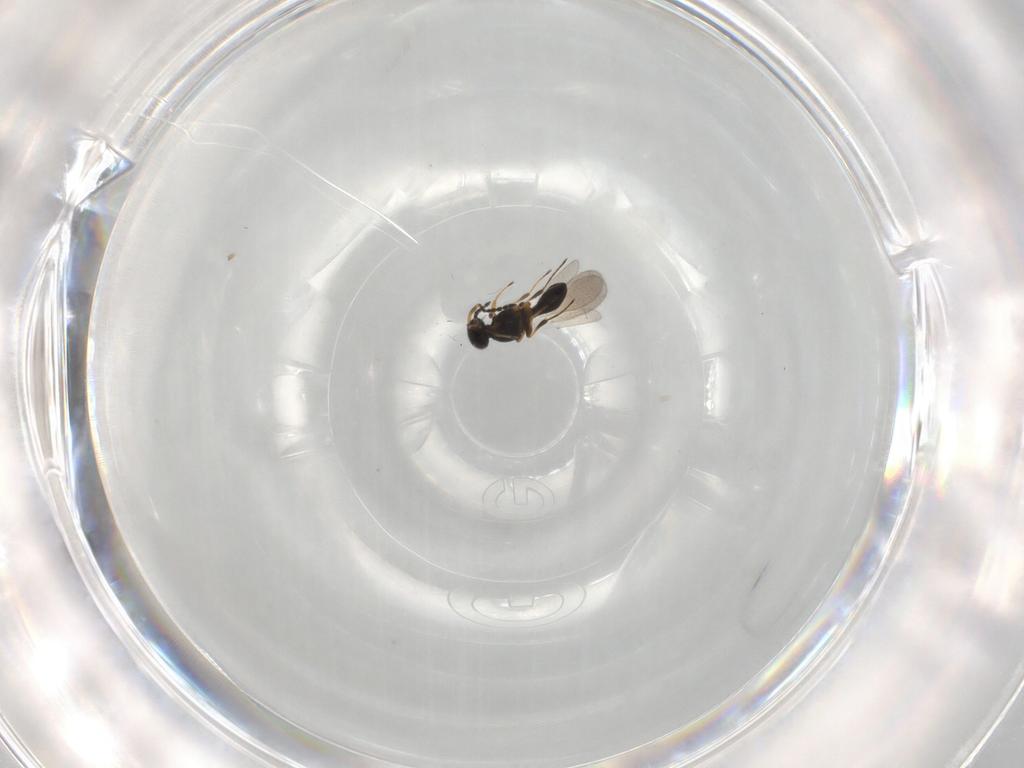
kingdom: Animalia
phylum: Arthropoda
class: Insecta
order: Hymenoptera
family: Platygastridae
